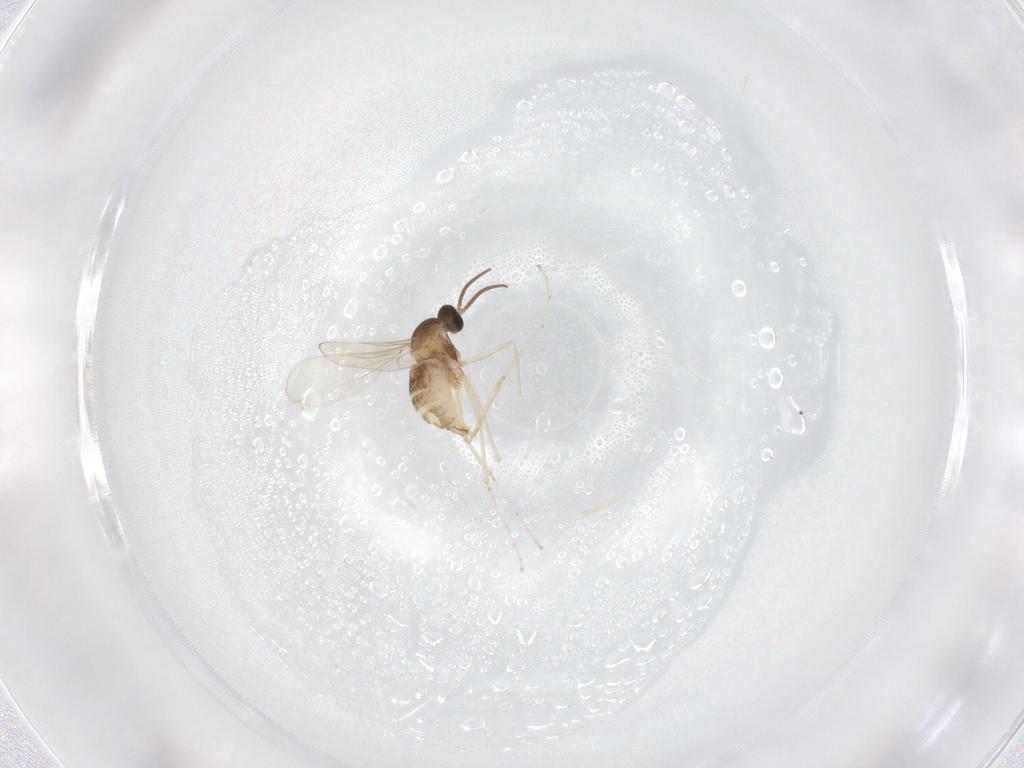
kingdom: Animalia
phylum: Arthropoda
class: Insecta
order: Diptera
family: Cecidomyiidae
